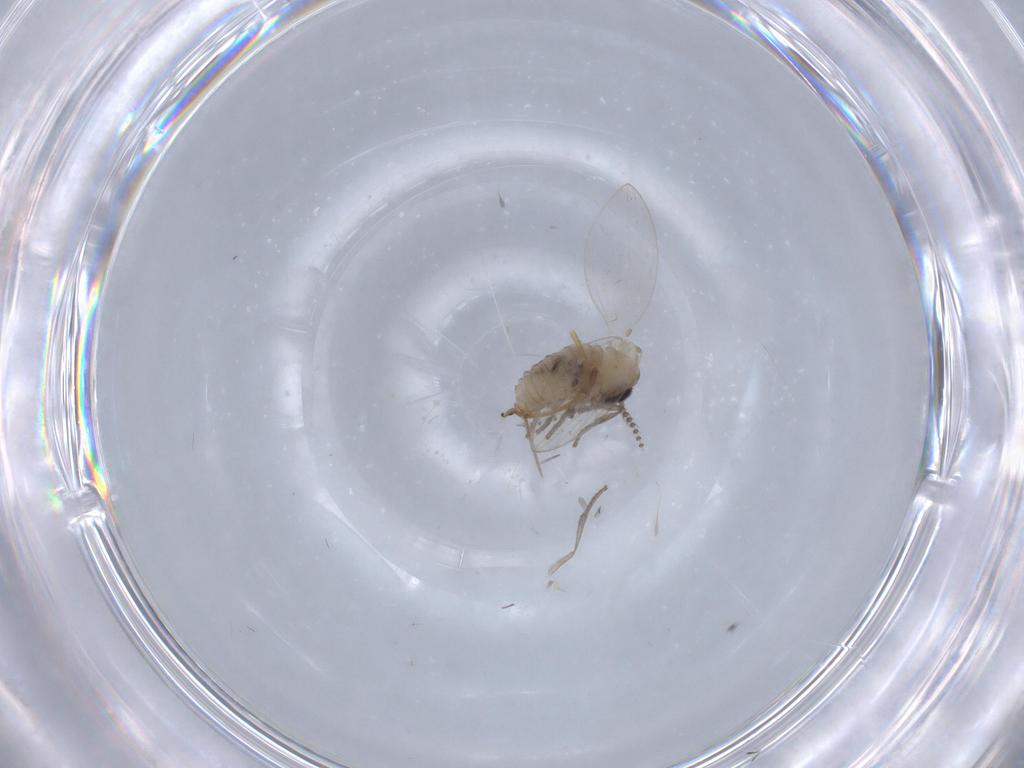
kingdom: Animalia
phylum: Arthropoda
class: Insecta
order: Diptera
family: Psychodidae
